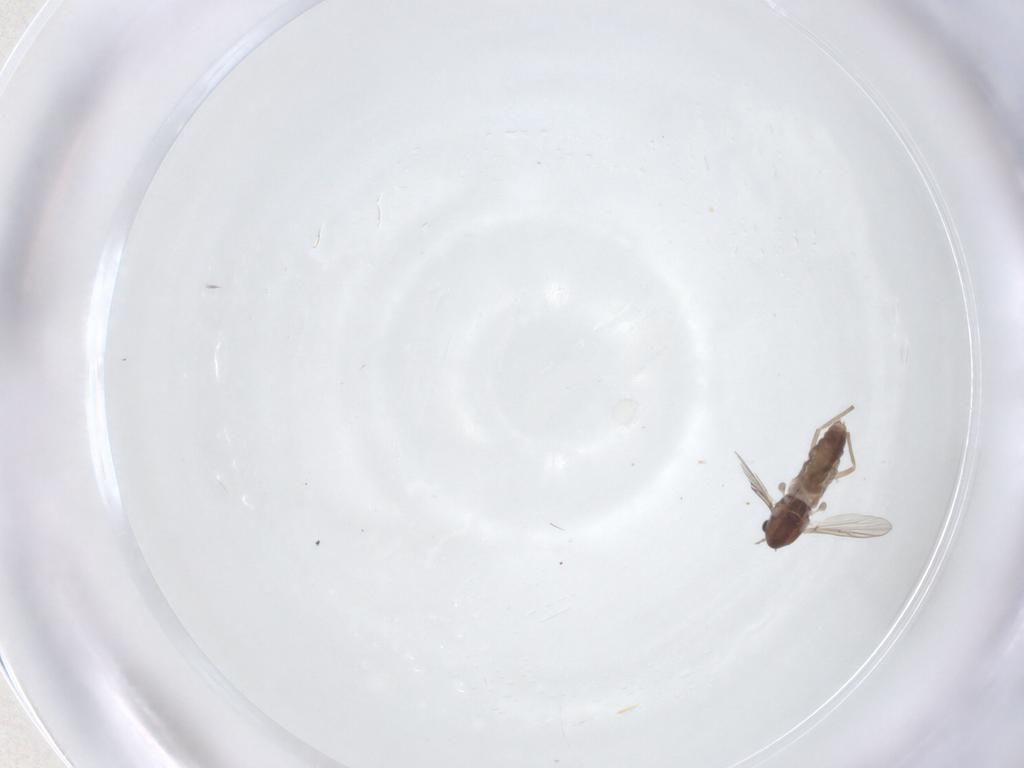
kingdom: Animalia
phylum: Arthropoda
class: Insecta
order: Diptera
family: Chironomidae
